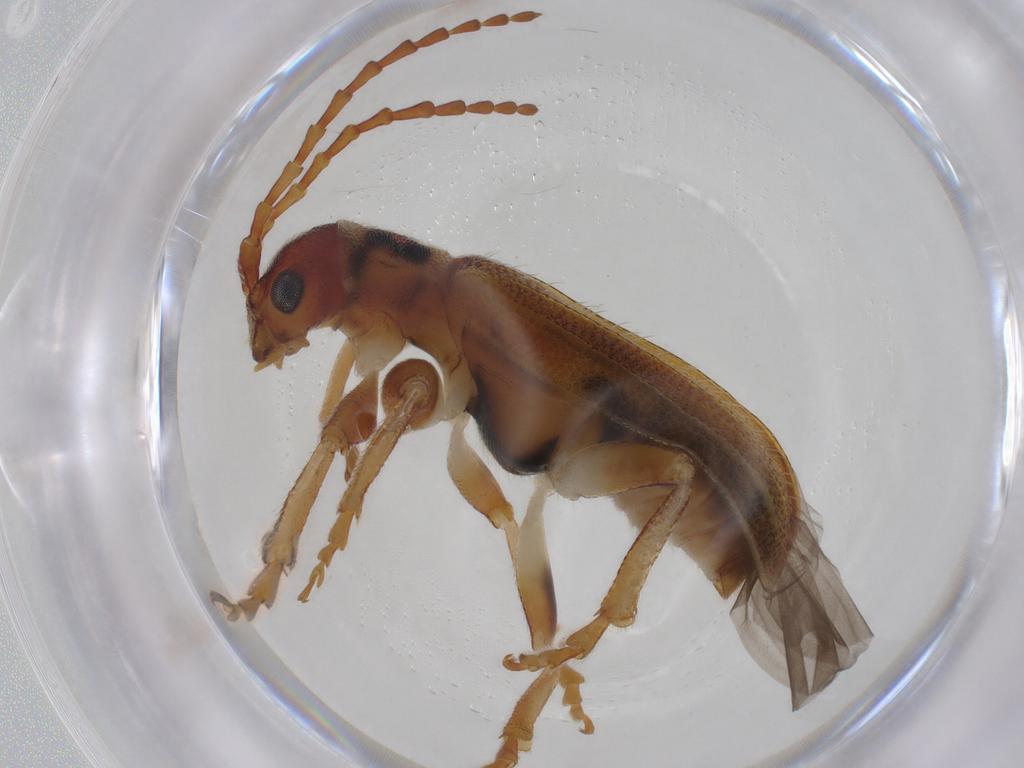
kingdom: Animalia
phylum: Arthropoda
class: Insecta
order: Coleoptera
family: Chrysomelidae
